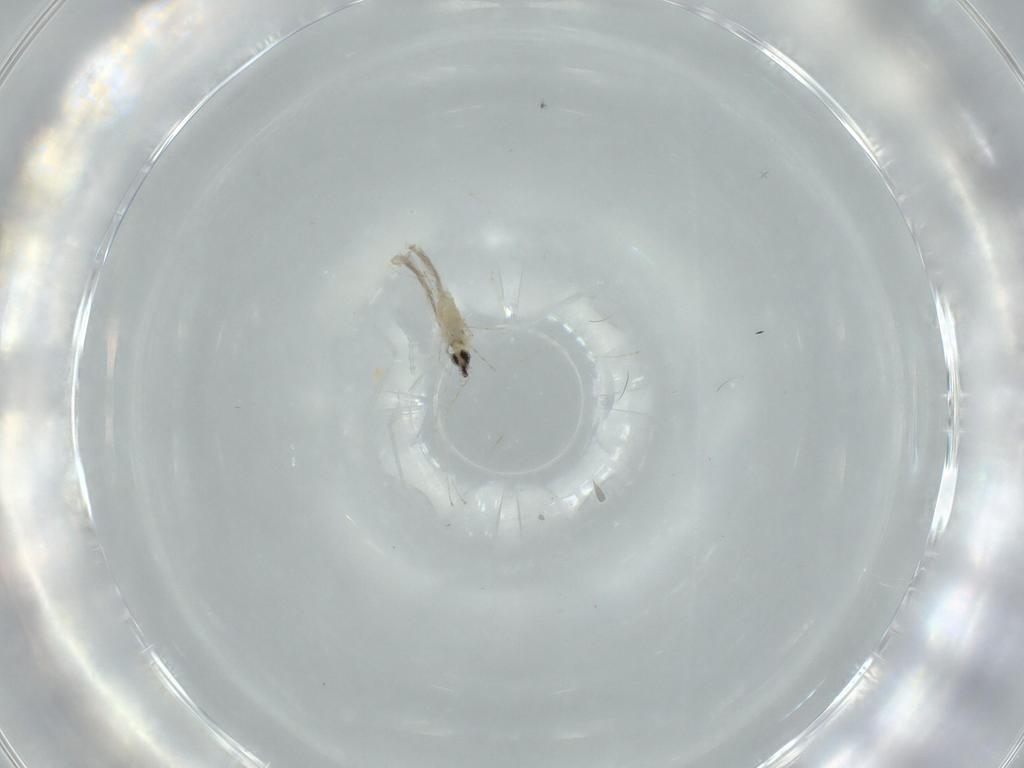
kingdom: Animalia
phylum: Arthropoda
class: Insecta
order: Diptera
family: Cecidomyiidae
